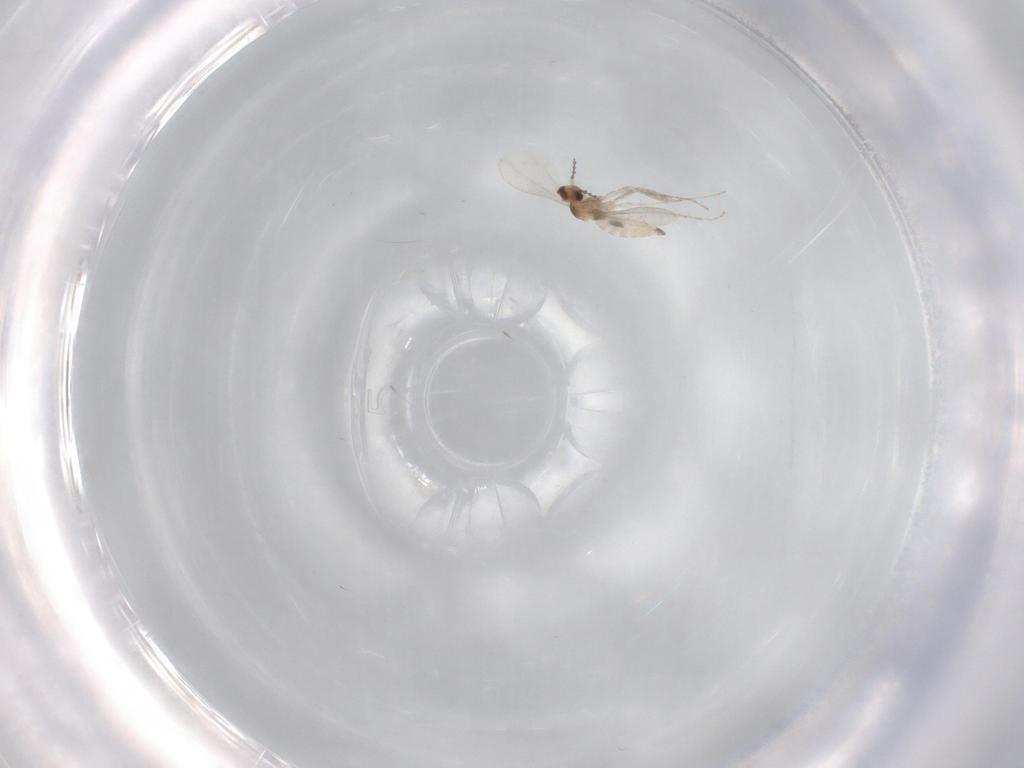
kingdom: Animalia
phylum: Arthropoda
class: Insecta
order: Diptera
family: Cecidomyiidae
